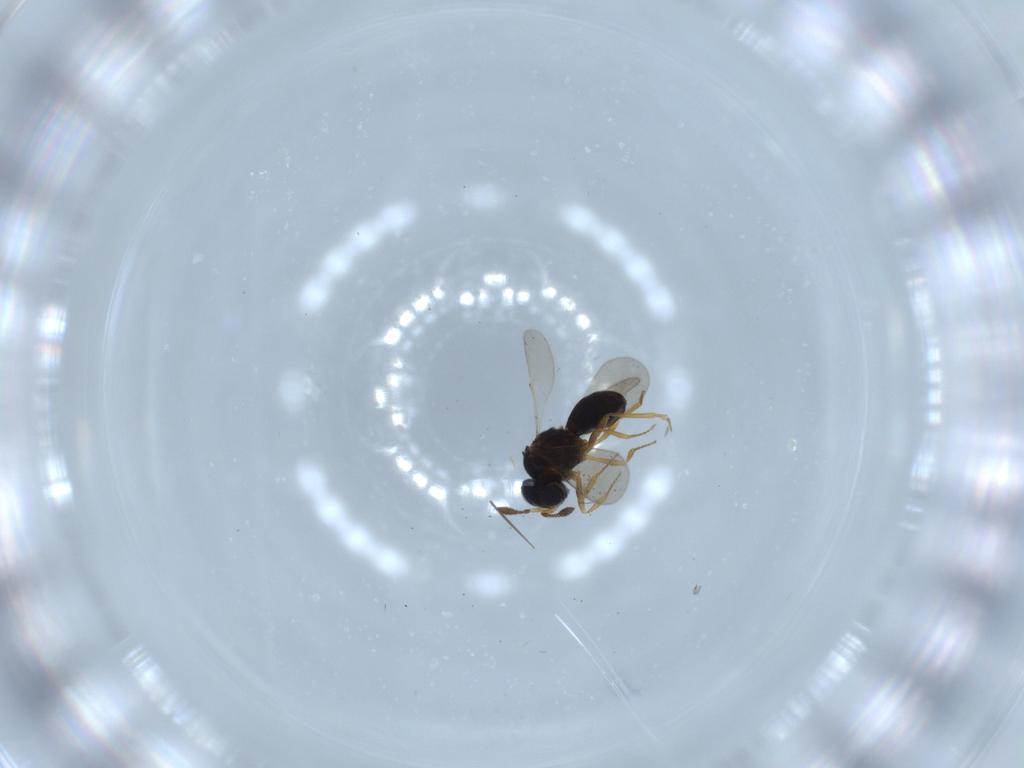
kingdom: Animalia
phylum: Arthropoda
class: Insecta
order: Hymenoptera
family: Scelionidae
